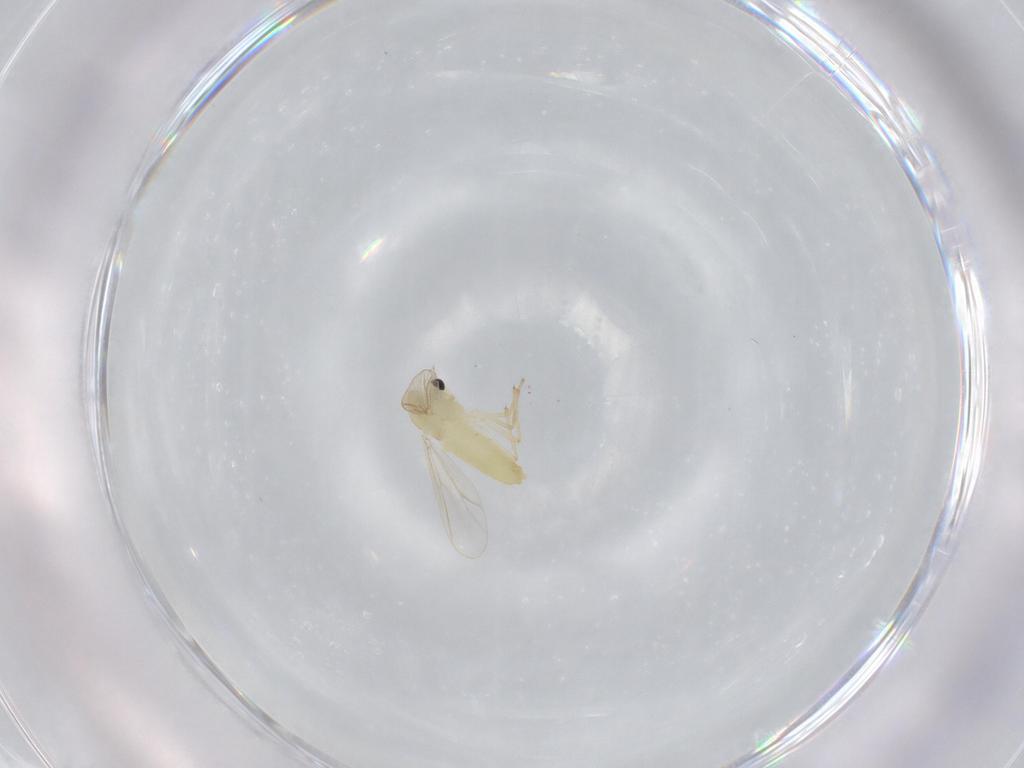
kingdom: Animalia
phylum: Arthropoda
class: Insecta
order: Diptera
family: Chironomidae
